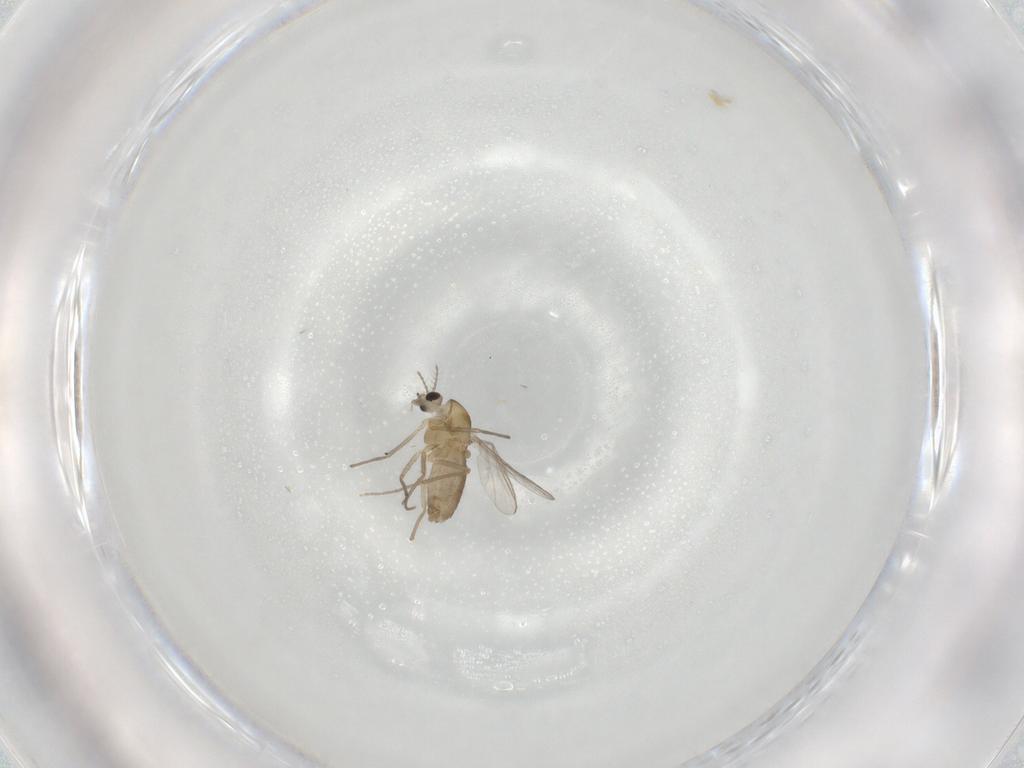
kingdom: Animalia
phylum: Arthropoda
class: Insecta
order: Diptera
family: Chironomidae
